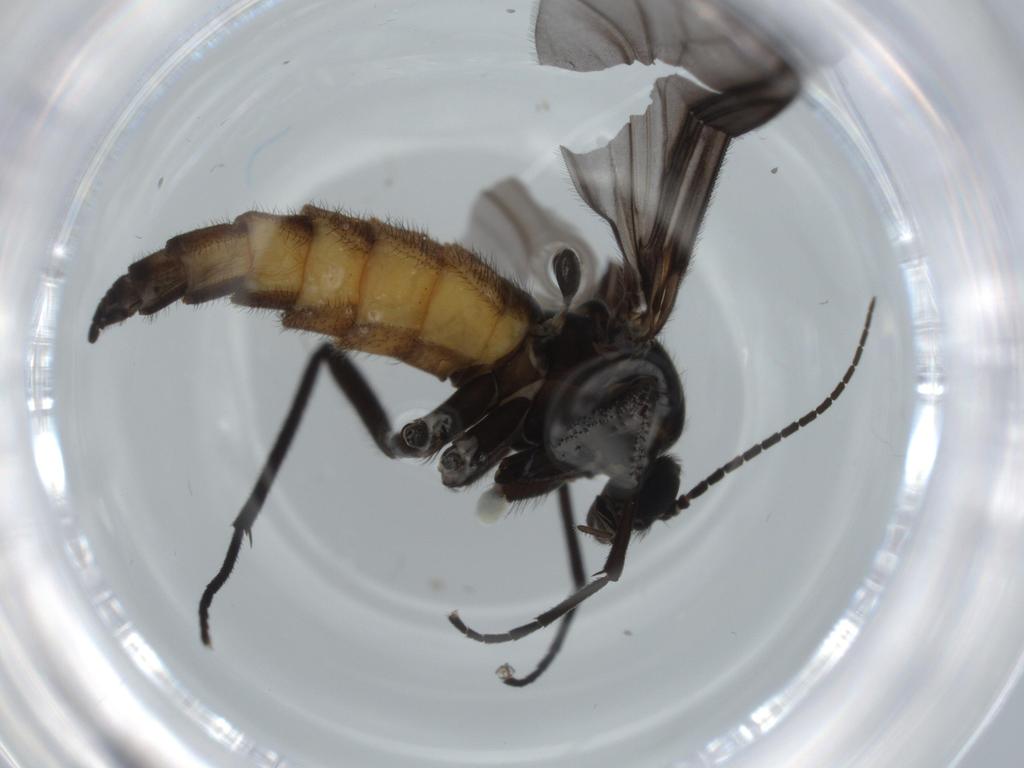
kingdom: Animalia
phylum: Arthropoda
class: Insecta
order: Diptera
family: Cecidomyiidae
